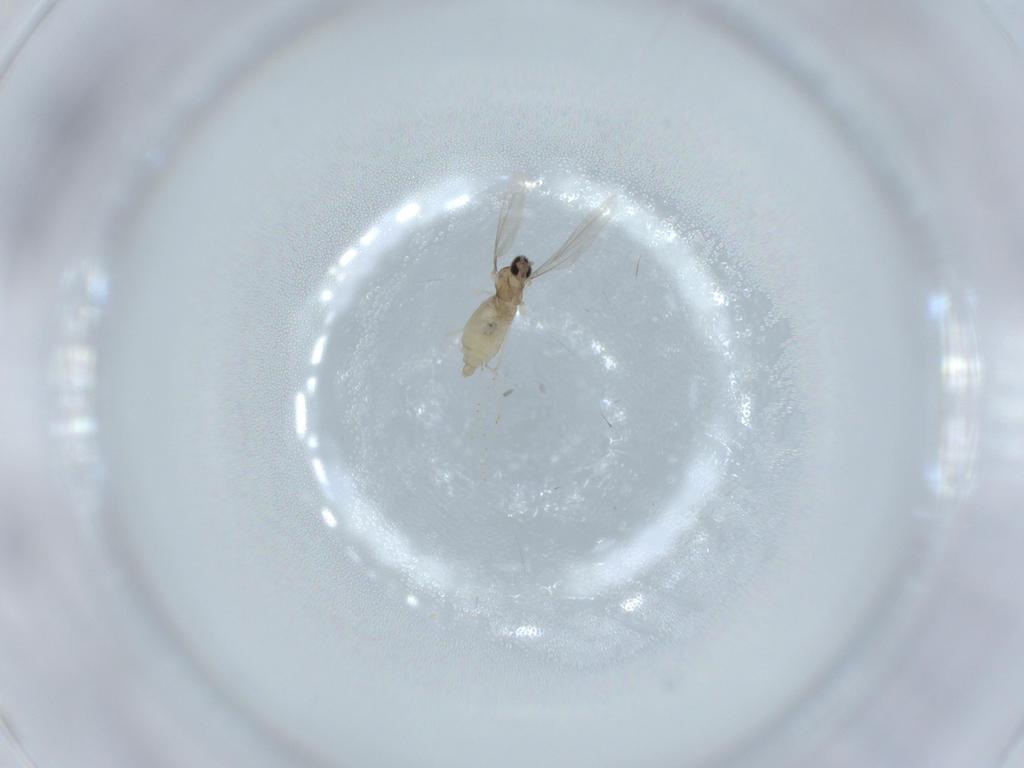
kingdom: Animalia
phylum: Arthropoda
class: Insecta
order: Diptera
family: Cecidomyiidae
